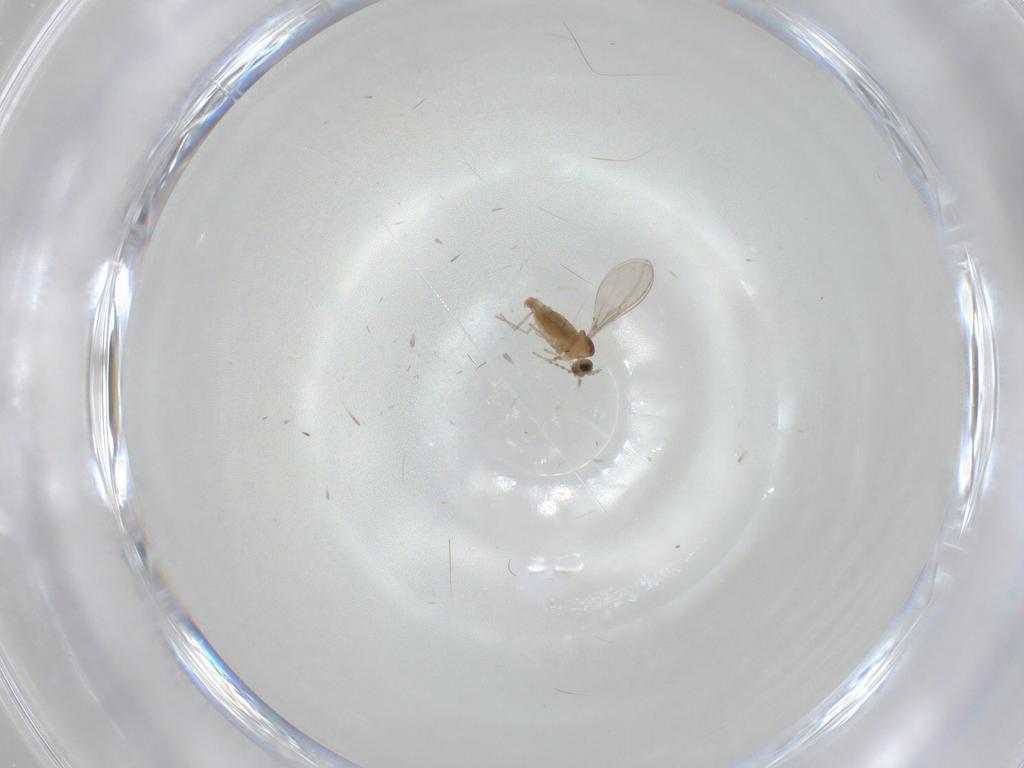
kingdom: Animalia
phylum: Arthropoda
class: Insecta
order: Diptera
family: Cecidomyiidae
